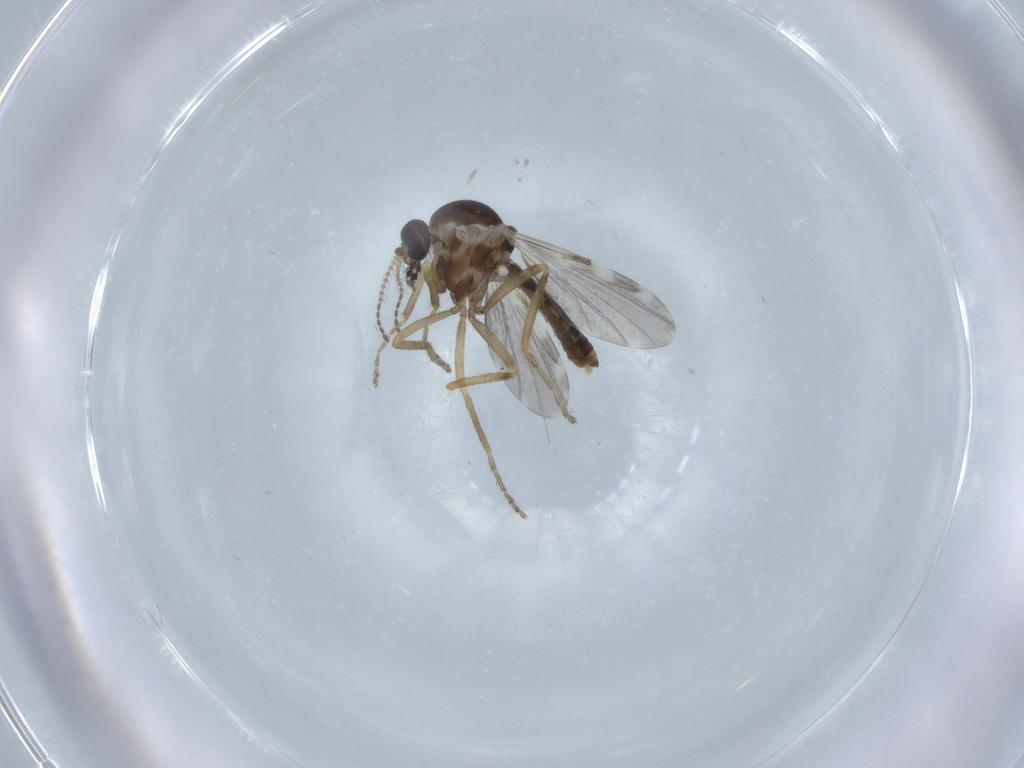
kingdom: Animalia
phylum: Arthropoda
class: Insecta
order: Diptera
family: Ceratopogonidae
